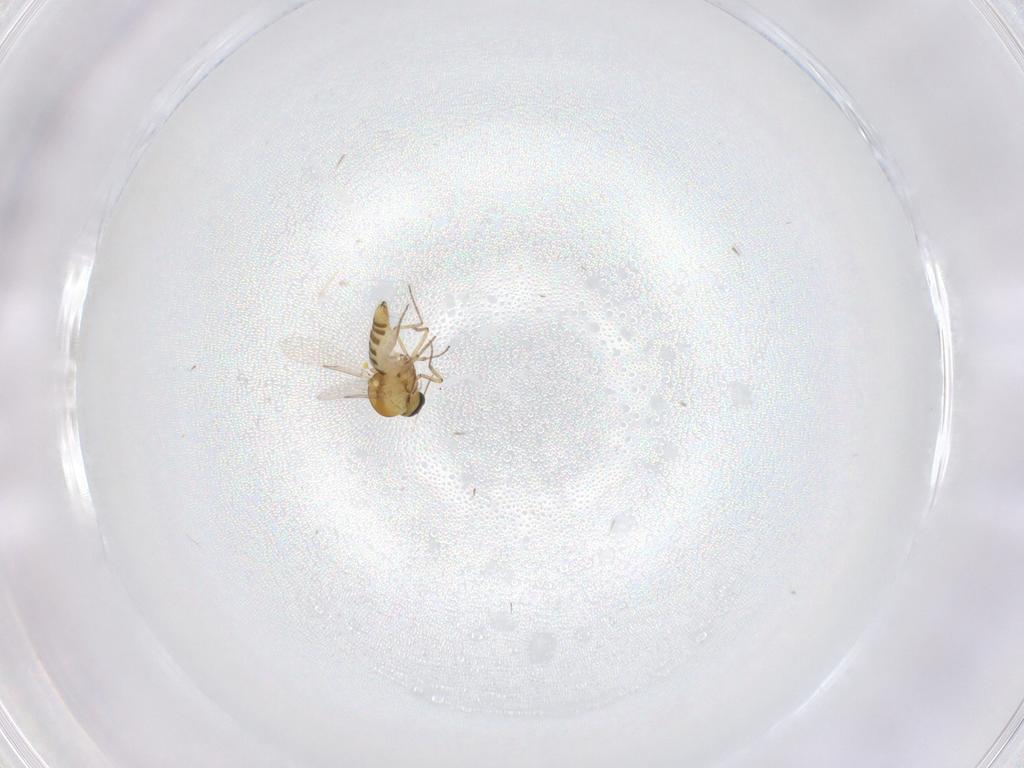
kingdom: Animalia
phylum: Arthropoda
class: Insecta
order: Diptera
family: Ceratopogonidae
